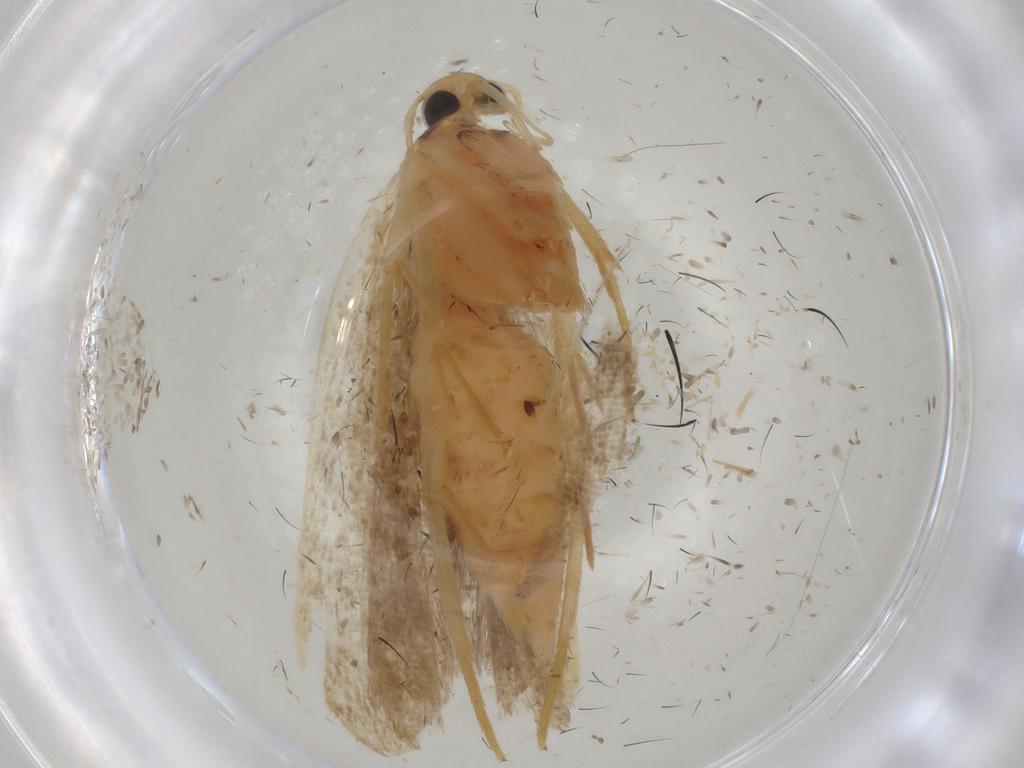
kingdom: Animalia
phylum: Arthropoda
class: Insecta
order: Lepidoptera
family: Gelechiidae
